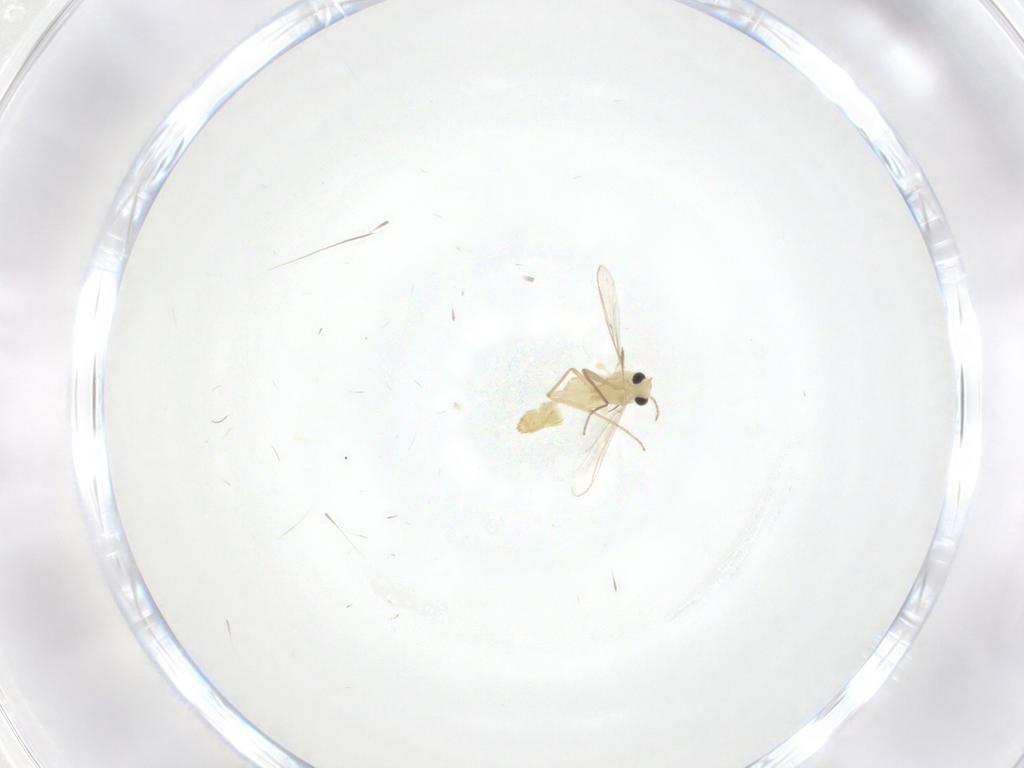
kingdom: Animalia
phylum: Arthropoda
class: Insecta
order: Diptera
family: Chironomidae
